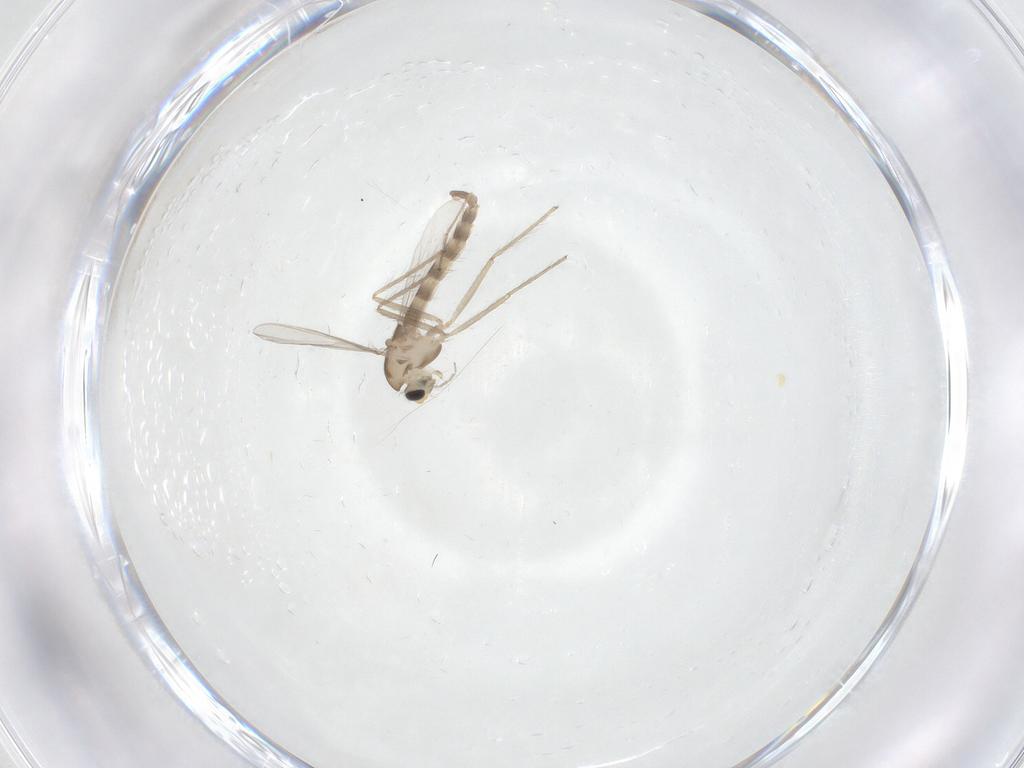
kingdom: Animalia
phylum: Arthropoda
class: Insecta
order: Diptera
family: Chironomidae
